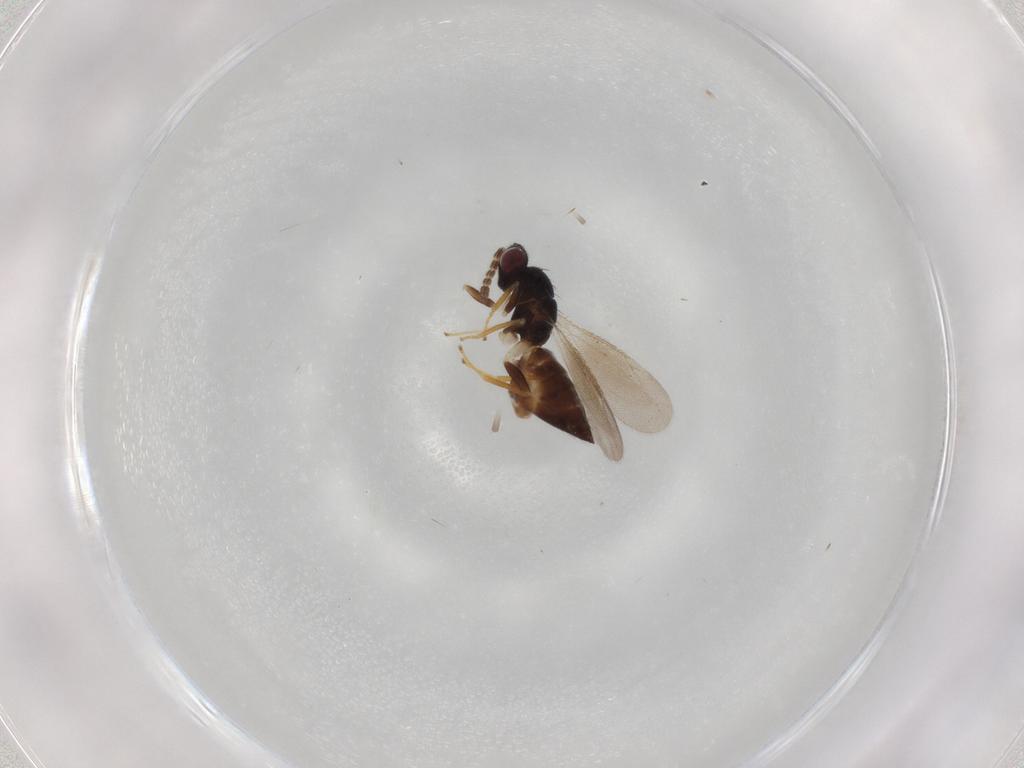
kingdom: Animalia
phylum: Arthropoda
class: Insecta
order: Hymenoptera
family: Eulophidae
